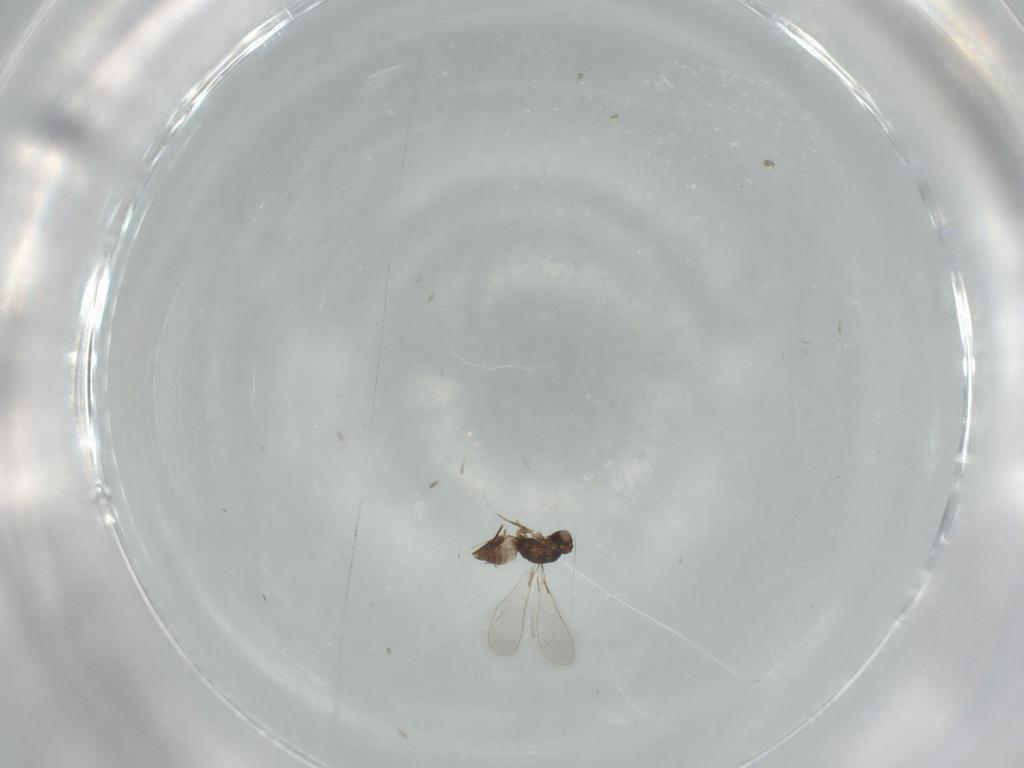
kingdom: Animalia
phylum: Arthropoda
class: Insecta
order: Hymenoptera
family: Mymaridae
